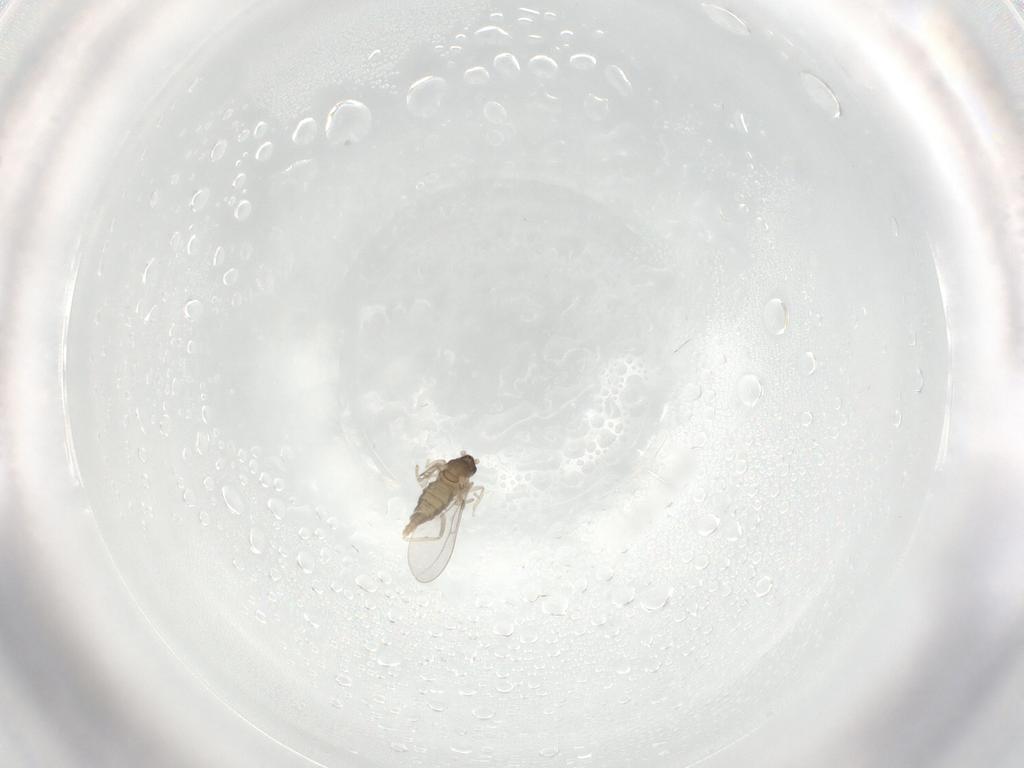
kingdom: Animalia
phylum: Arthropoda
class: Insecta
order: Diptera
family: Cecidomyiidae
